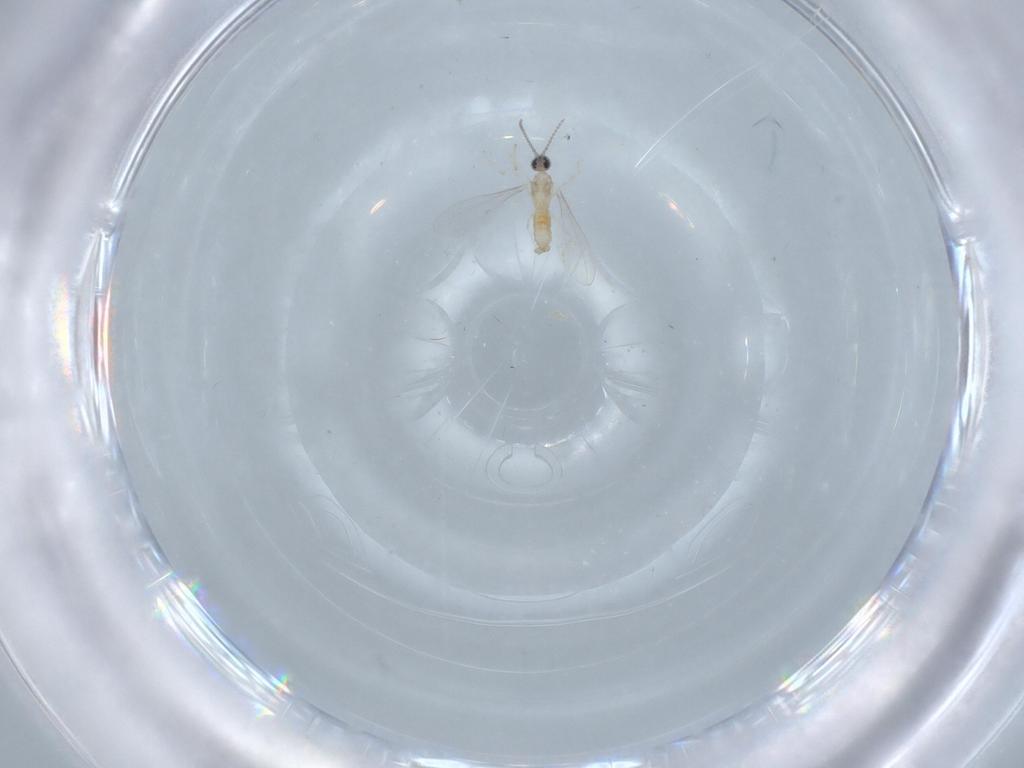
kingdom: Animalia
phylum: Arthropoda
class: Insecta
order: Diptera
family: Cecidomyiidae
